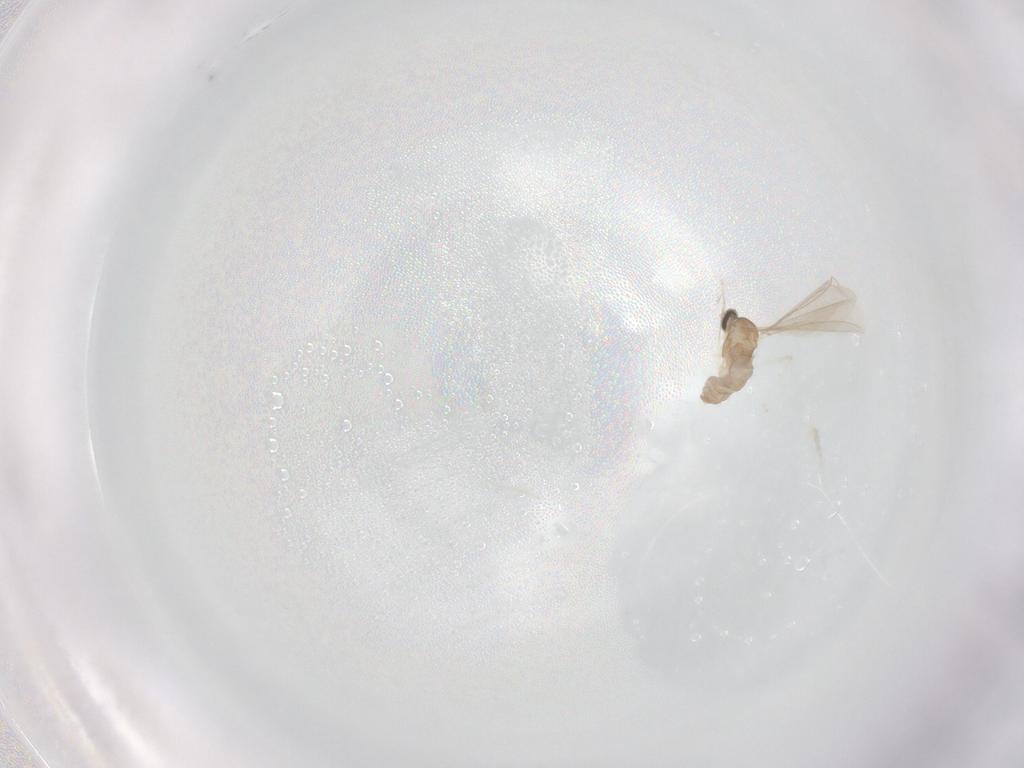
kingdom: Animalia
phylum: Arthropoda
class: Insecta
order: Diptera
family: Cecidomyiidae
